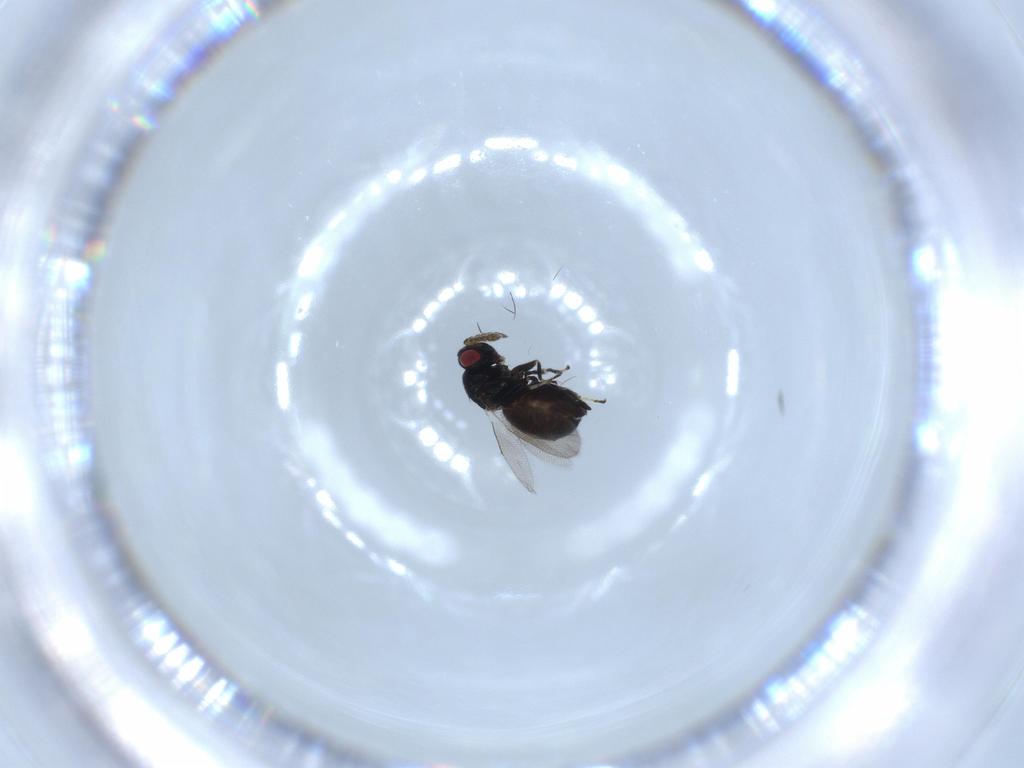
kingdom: Animalia
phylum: Arthropoda
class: Insecta
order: Hymenoptera
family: Eulophidae
